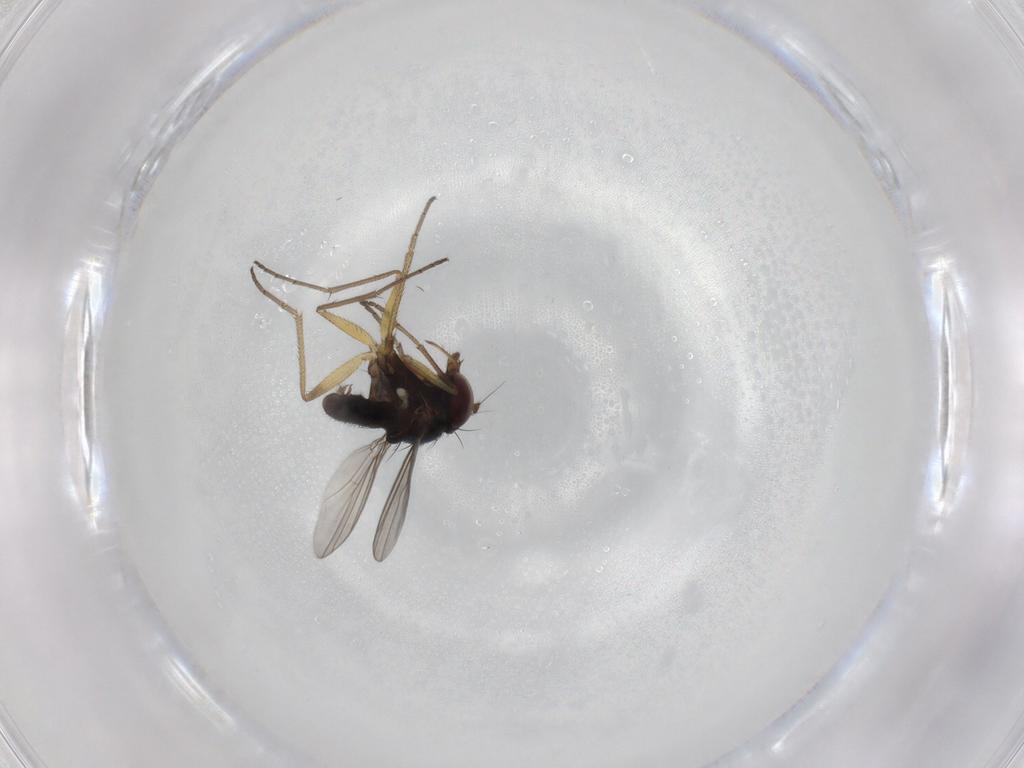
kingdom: Animalia
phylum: Arthropoda
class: Insecta
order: Diptera
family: Dolichopodidae
